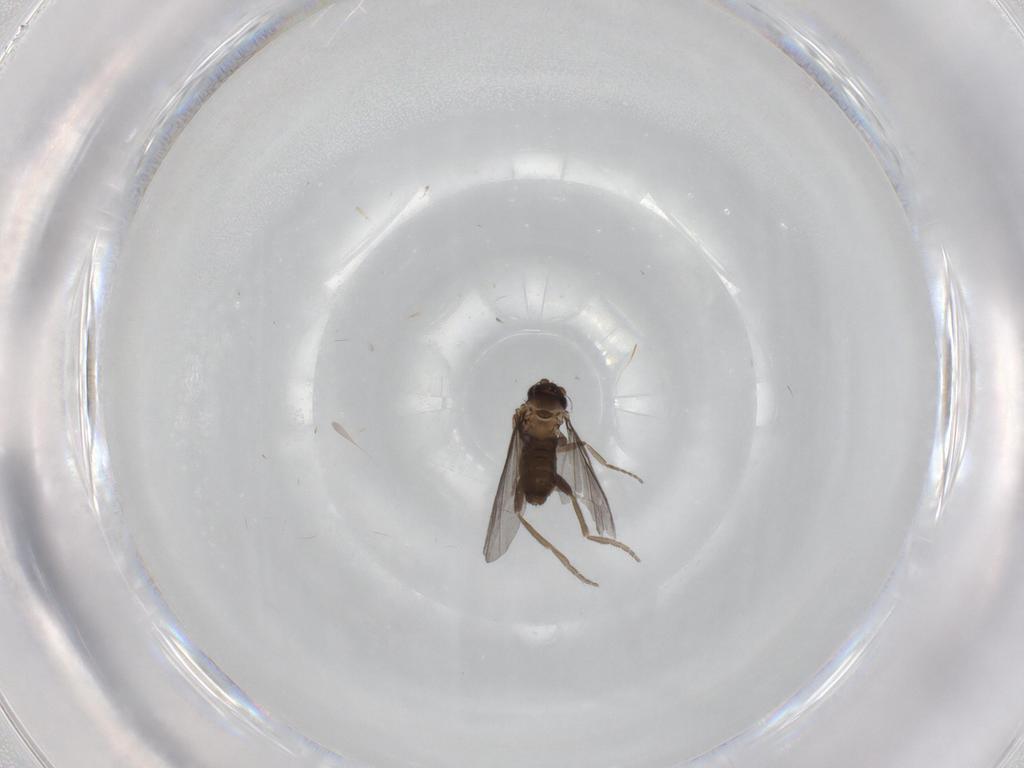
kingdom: Animalia
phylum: Arthropoda
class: Insecta
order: Diptera
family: Phoridae
